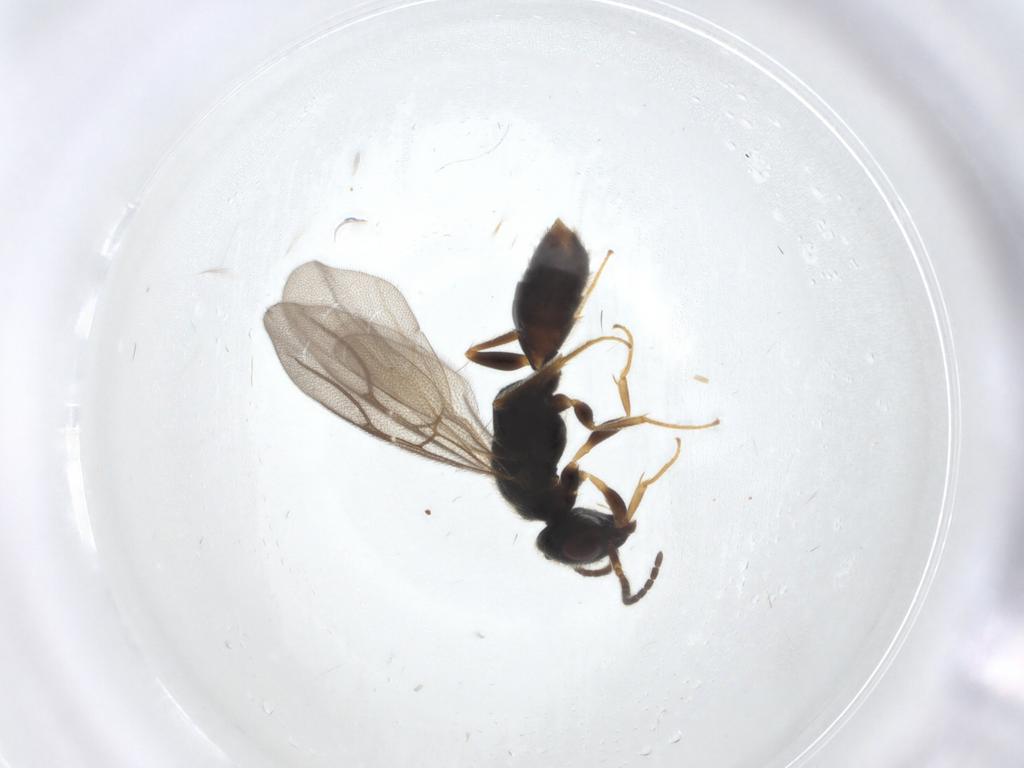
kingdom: Animalia
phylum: Arthropoda
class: Insecta
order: Hymenoptera
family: Bethylidae
